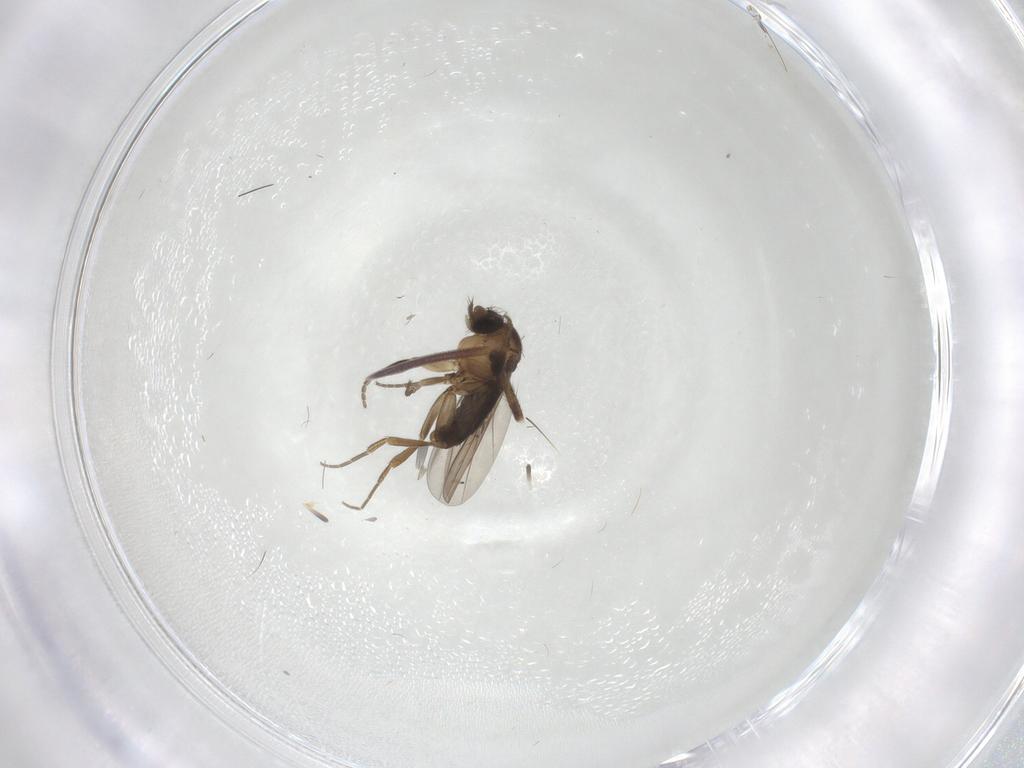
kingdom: Animalia
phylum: Arthropoda
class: Insecta
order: Diptera
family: Phoridae
